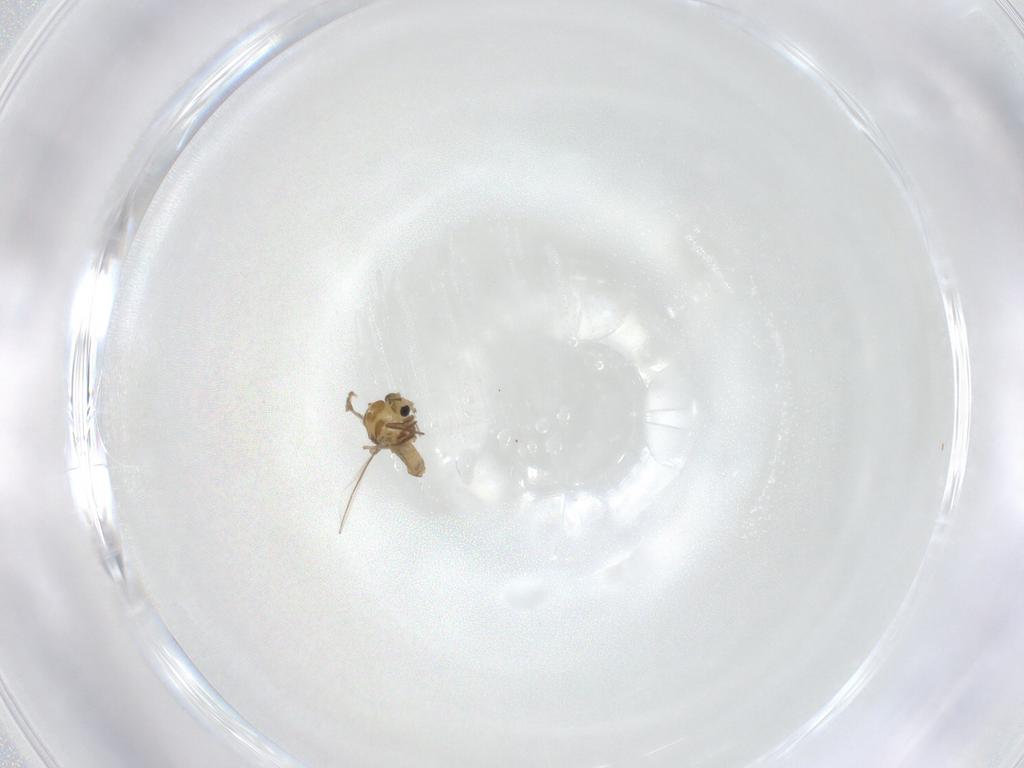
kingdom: Animalia
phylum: Arthropoda
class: Insecta
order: Diptera
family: Chironomidae
